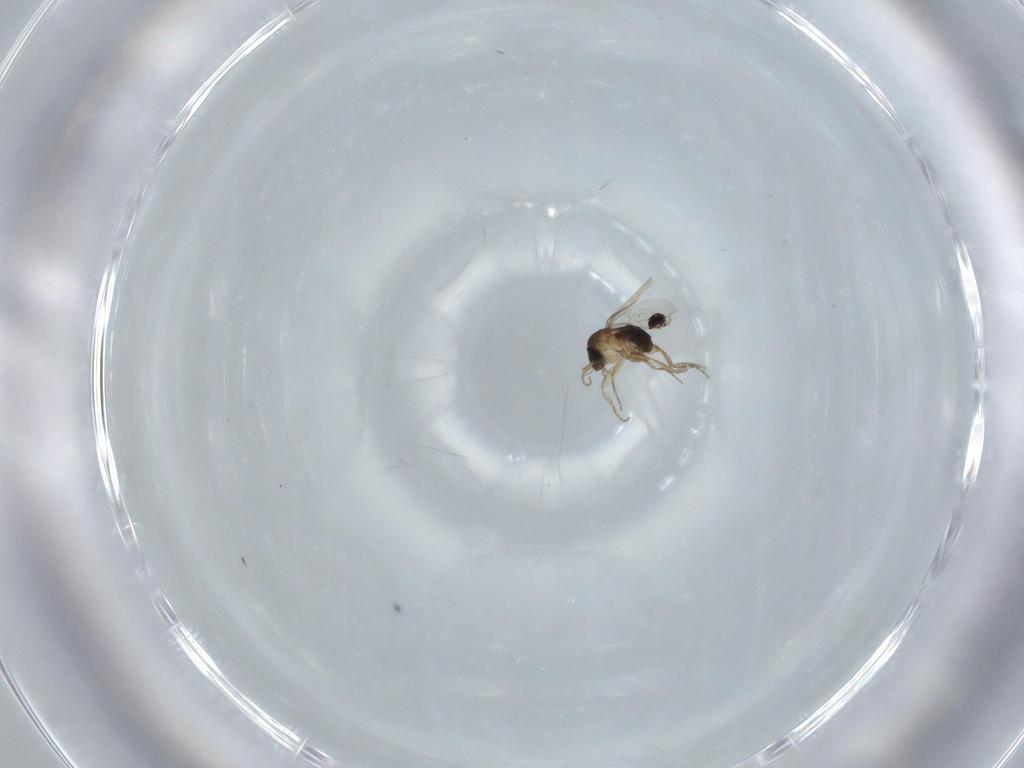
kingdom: Animalia
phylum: Arthropoda
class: Insecta
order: Diptera
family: Phoridae
